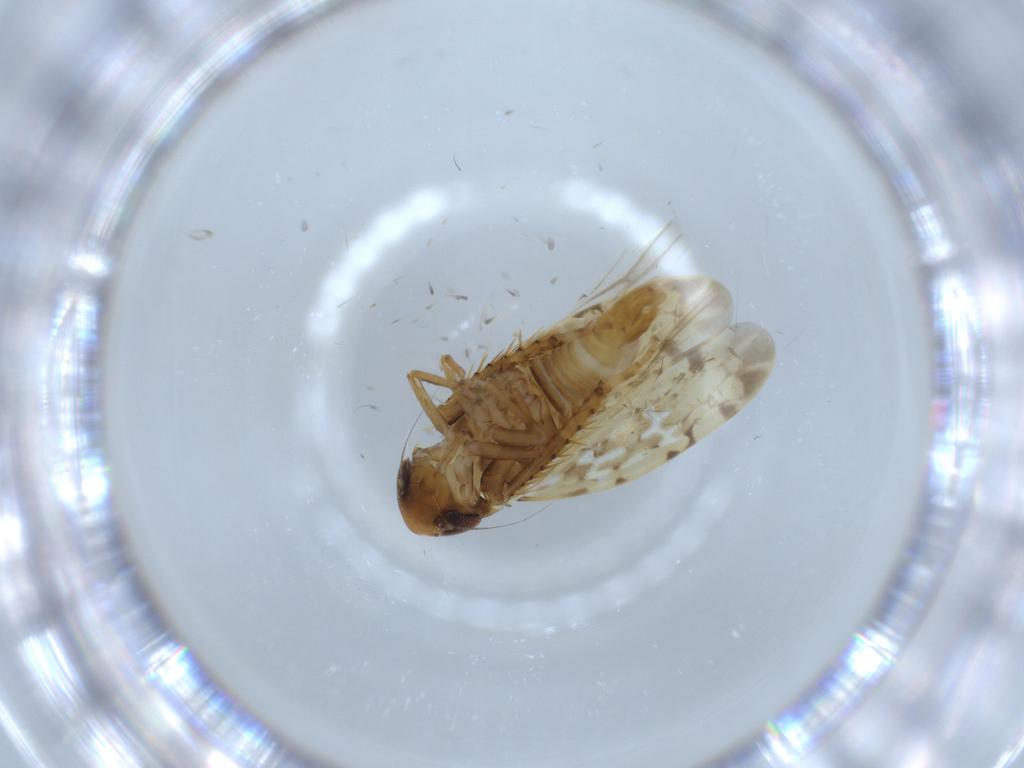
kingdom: Animalia
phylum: Arthropoda
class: Insecta
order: Hemiptera
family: Cicadellidae
